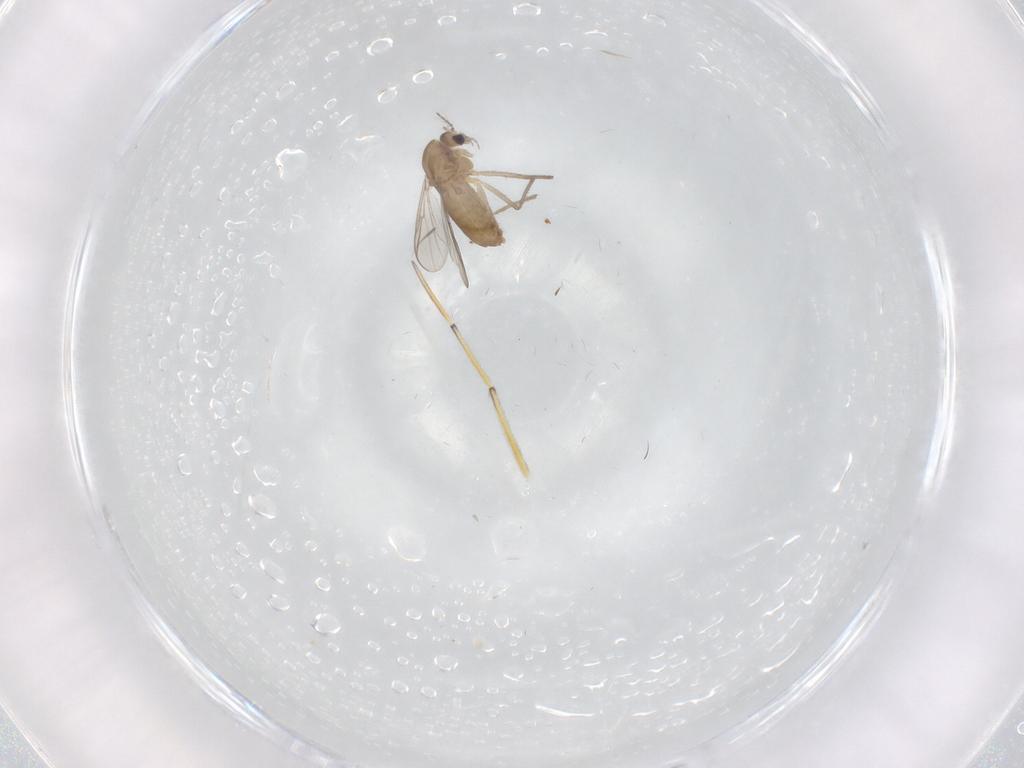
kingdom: Animalia
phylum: Arthropoda
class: Insecta
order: Diptera
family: Chironomidae
